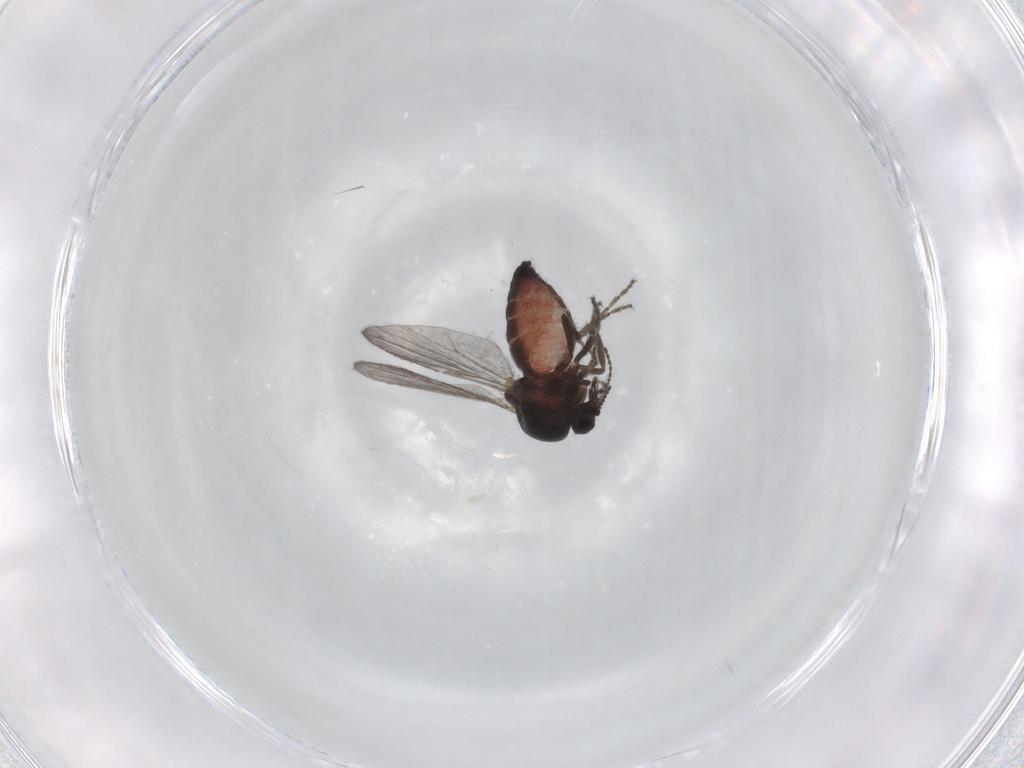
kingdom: Animalia
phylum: Arthropoda
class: Insecta
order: Diptera
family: Ceratopogonidae
